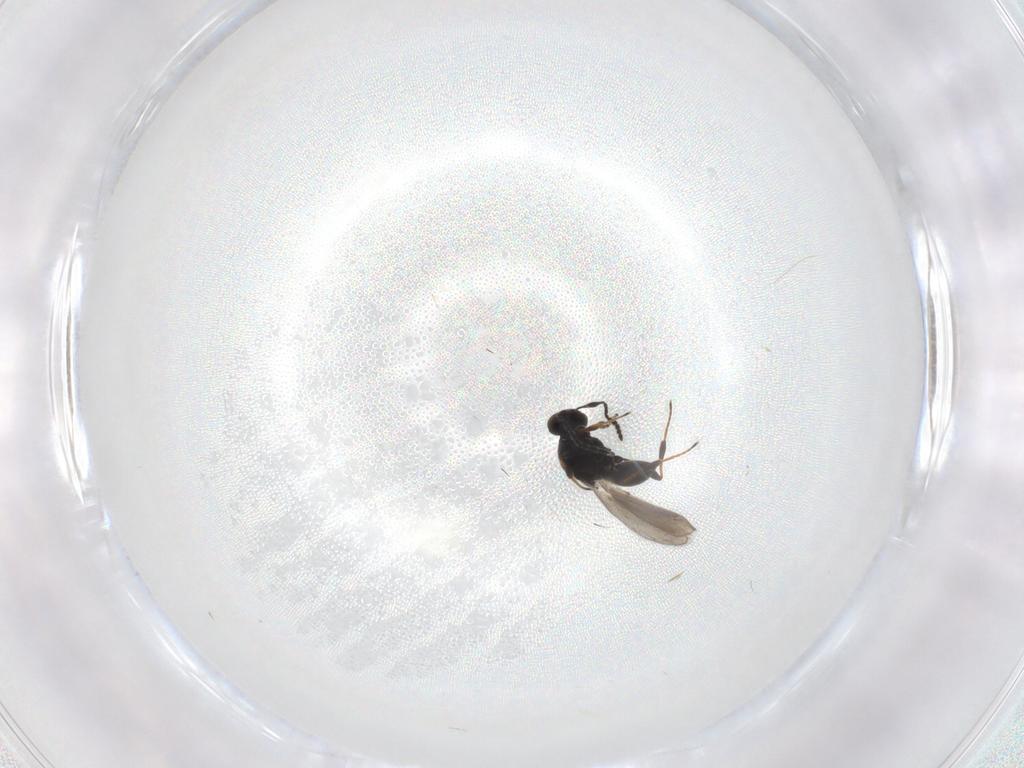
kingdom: Animalia
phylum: Arthropoda
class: Insecta
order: Hymenoptera
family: Platygastridae
